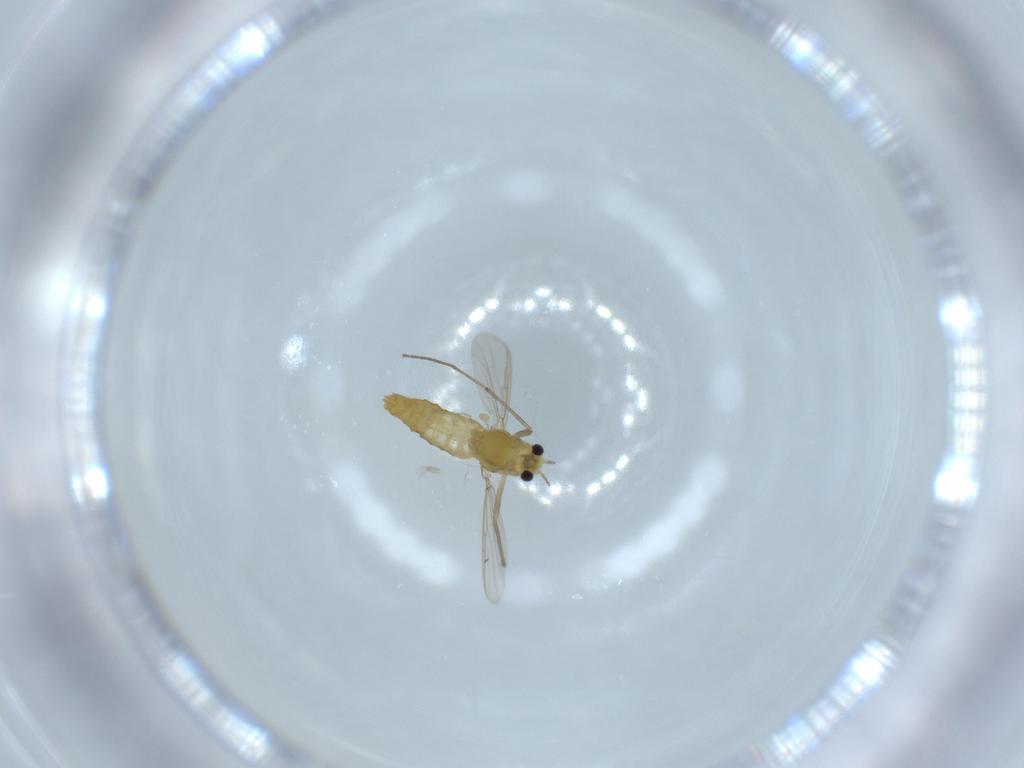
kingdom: Animalia
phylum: Arthropoda
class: Insecta
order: Diptera
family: Chironomidae
